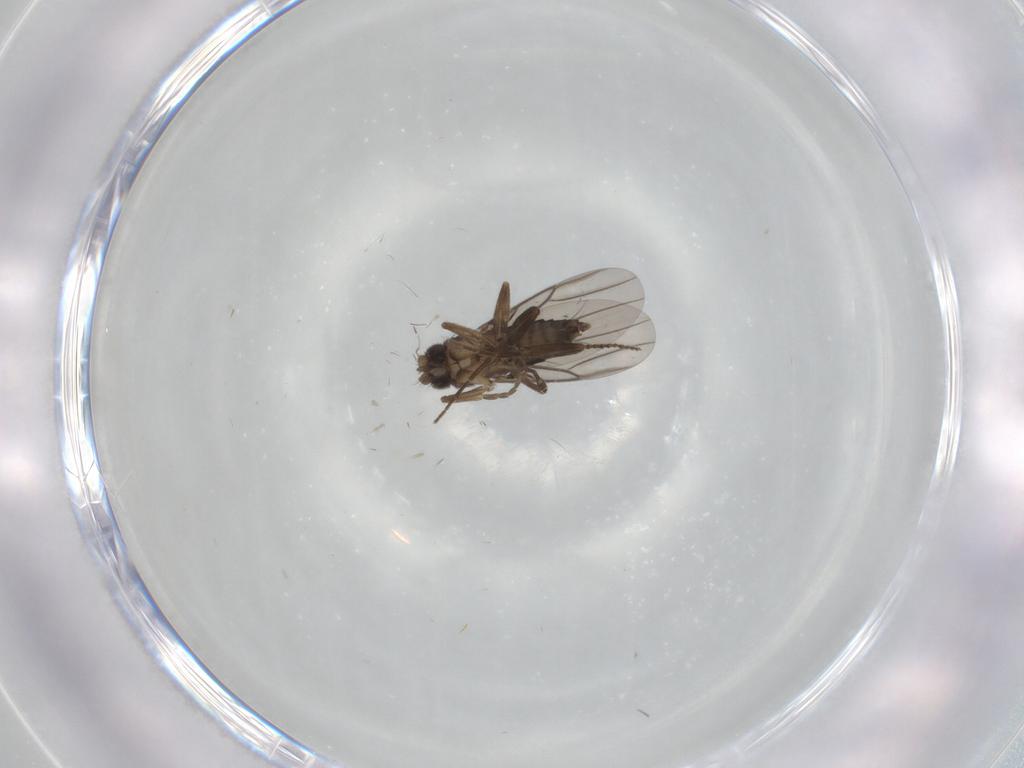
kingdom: Animalia
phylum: Arthropoda
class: Insecta
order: Diptera
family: Phoridae
